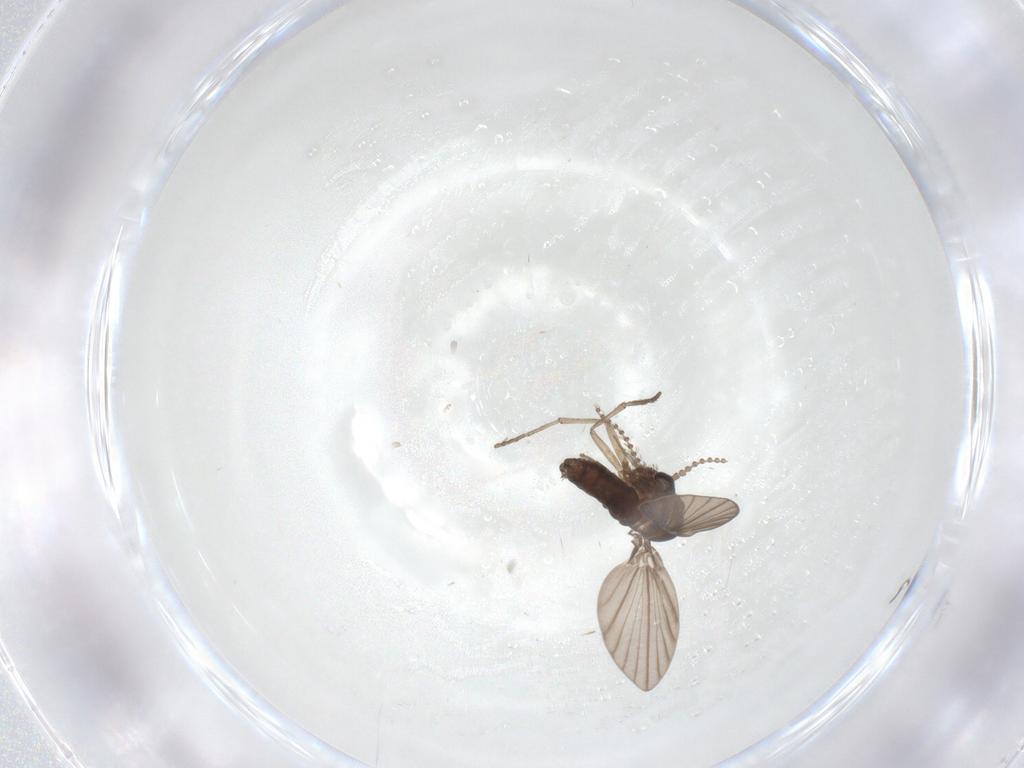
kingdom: Animalia
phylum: Arthropoda
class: Insecta
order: Diptera
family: Psychodidae
